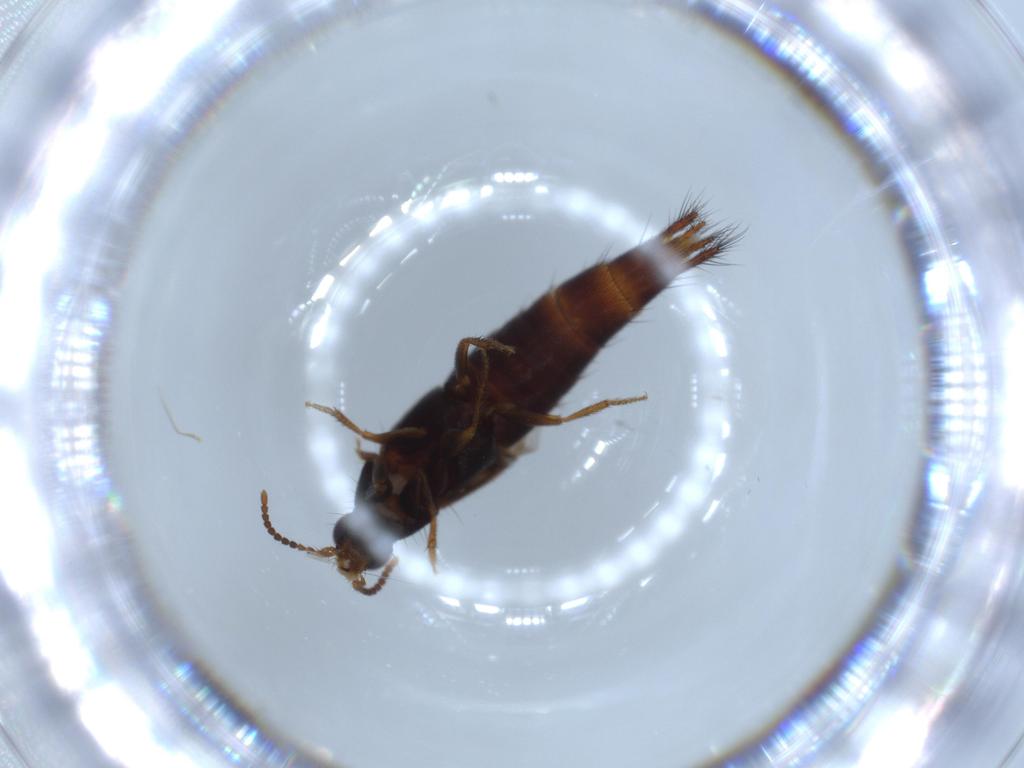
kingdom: Animalia
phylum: Arthropoda
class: Insecta
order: Coleoptera
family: Staphylinidae
